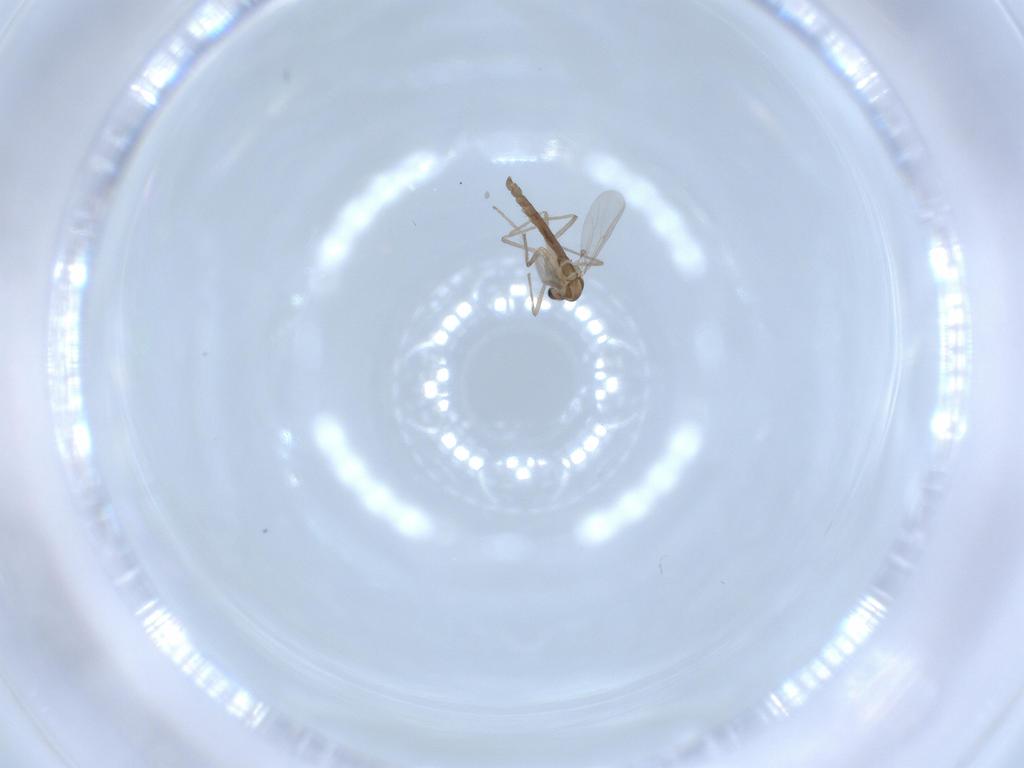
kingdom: Animalia
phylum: Arthropoda
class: Insecta
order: Diptera
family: Chironomidae
